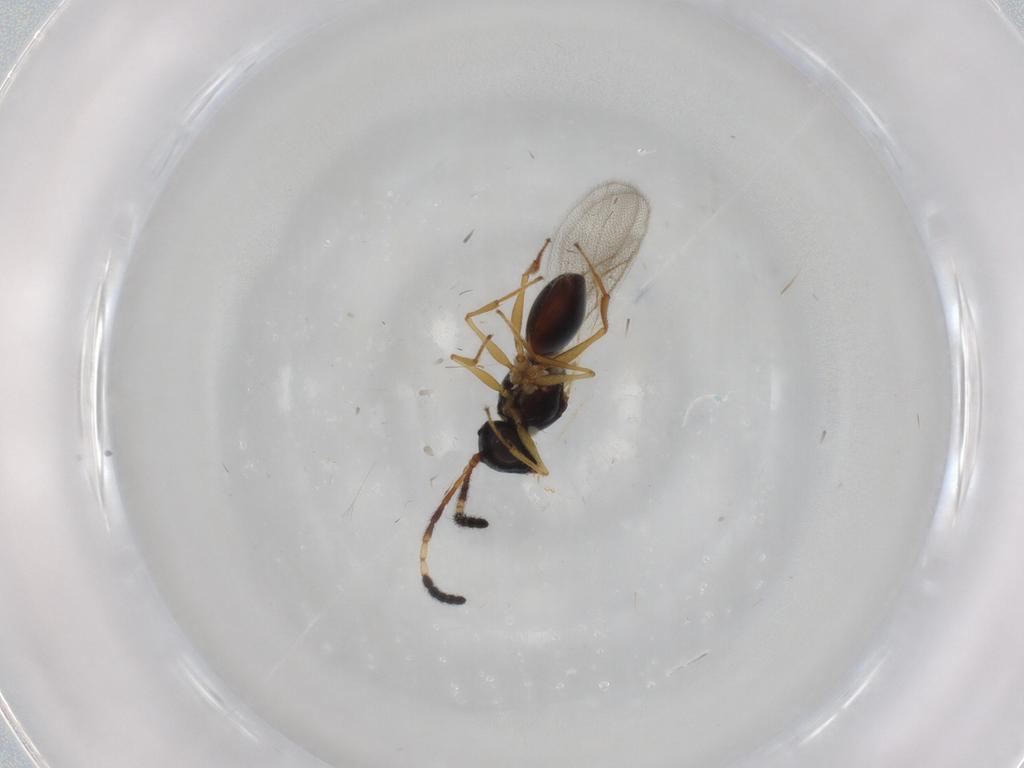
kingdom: Animalia
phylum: Arthropoda
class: Insecta
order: Hymenoptera
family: Figitidae
